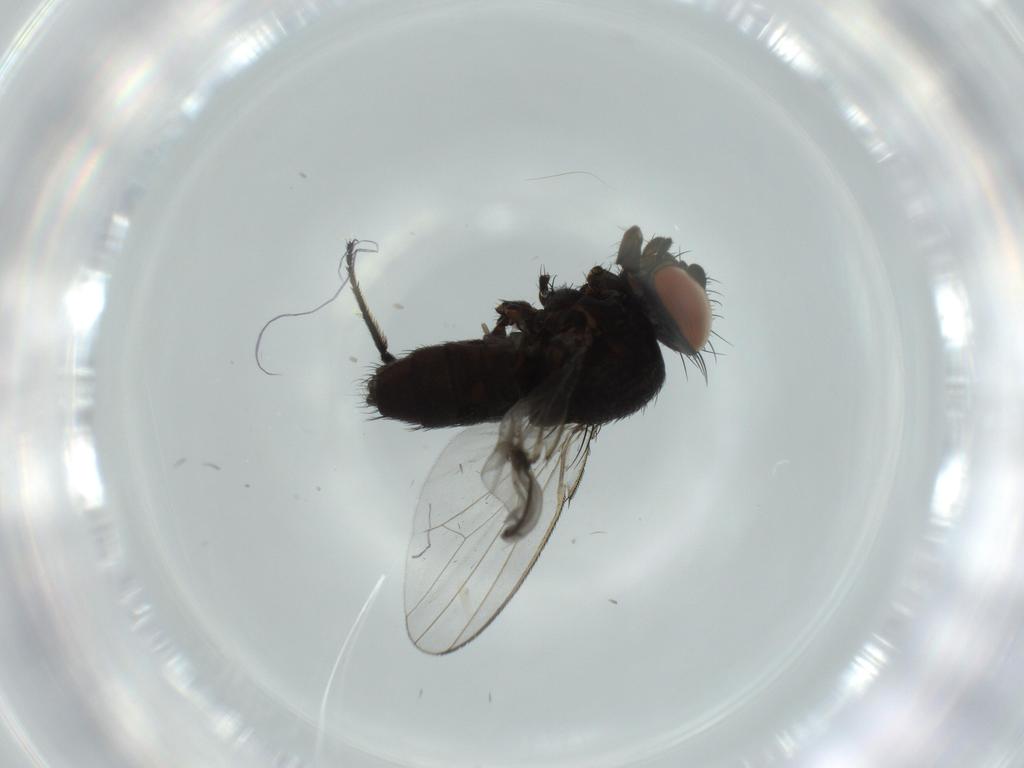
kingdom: Animalia
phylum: Arthropoda
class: Insecta
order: Diptera
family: Milichiidae
